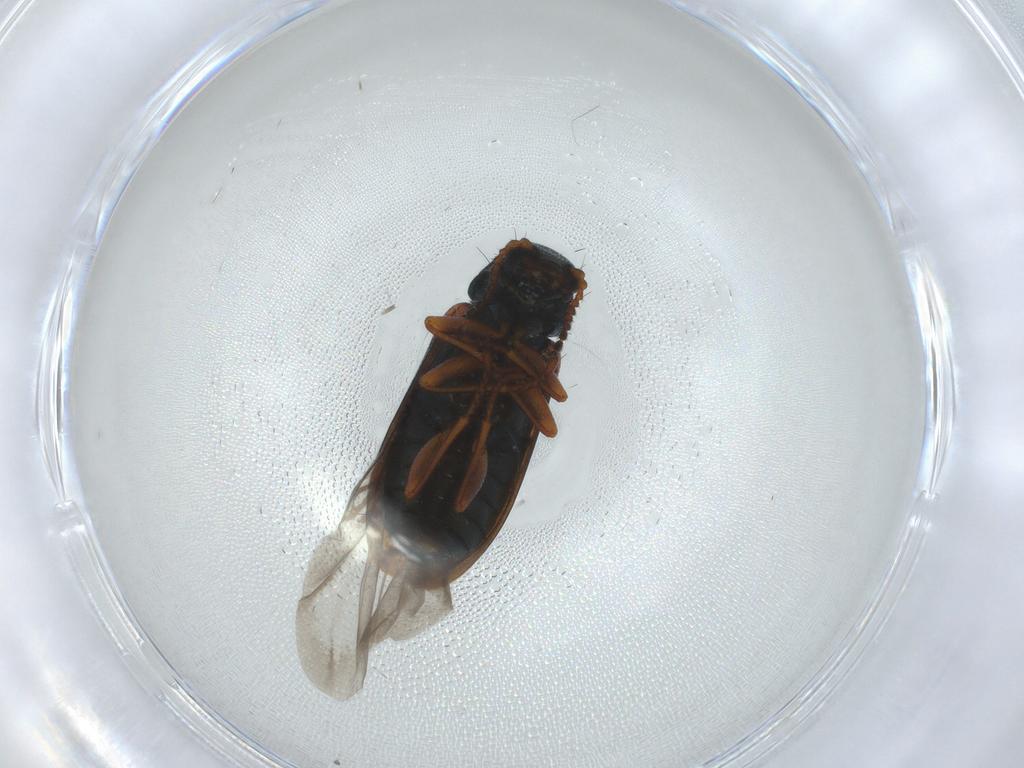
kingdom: Animalia
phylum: Arthropoda
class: Insecta
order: Coleoptera
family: Melyridae
